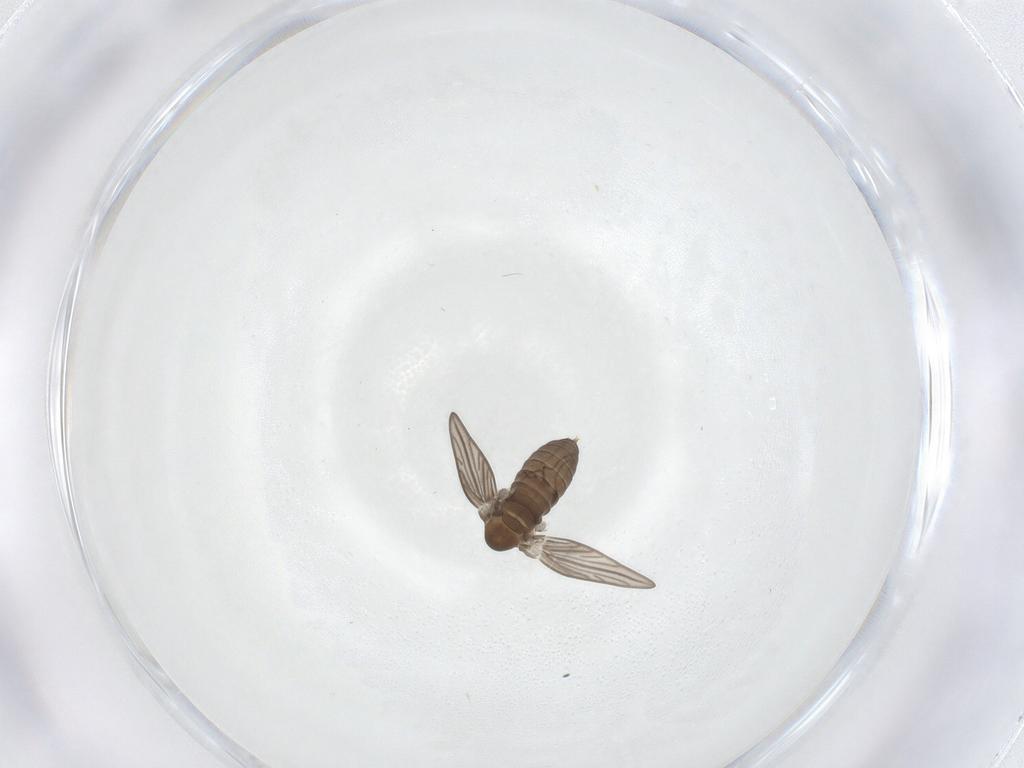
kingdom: Animalia
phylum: Arthropoda
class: Insecta
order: Diptera
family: Psychodidae
